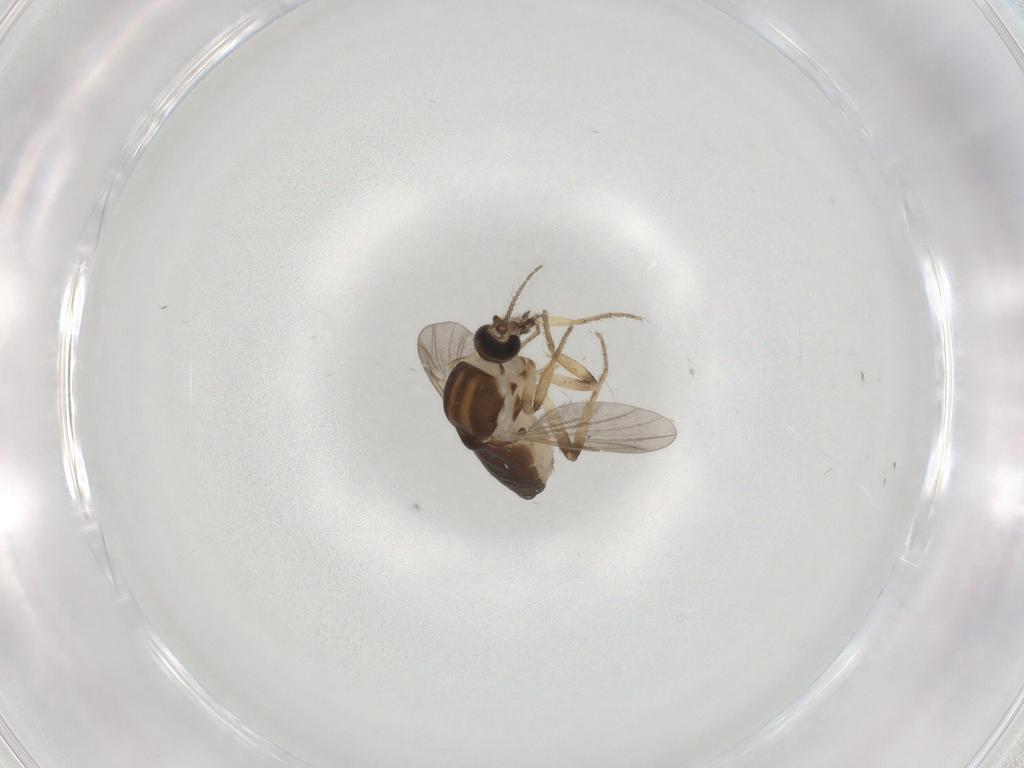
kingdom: Animalia
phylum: Arthropoda
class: Insecta
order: Diptera
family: Ceratopogonidae
